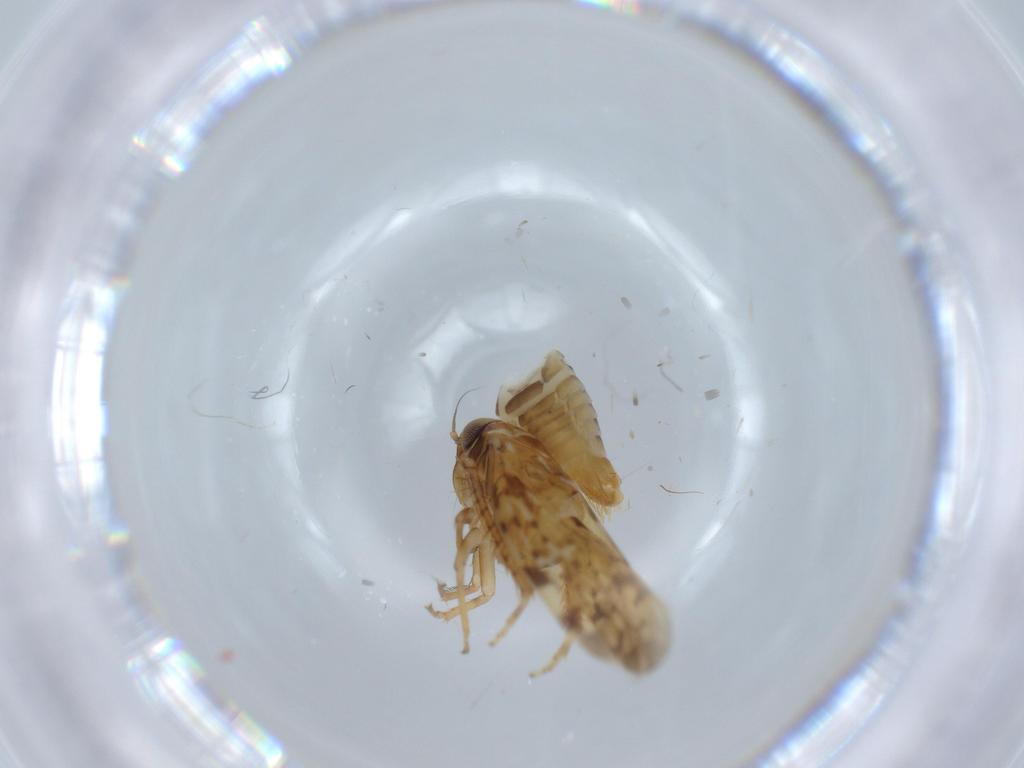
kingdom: Animalia
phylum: Arthropoda
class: Insecta
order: Hemiptera
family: Cicadellidae
